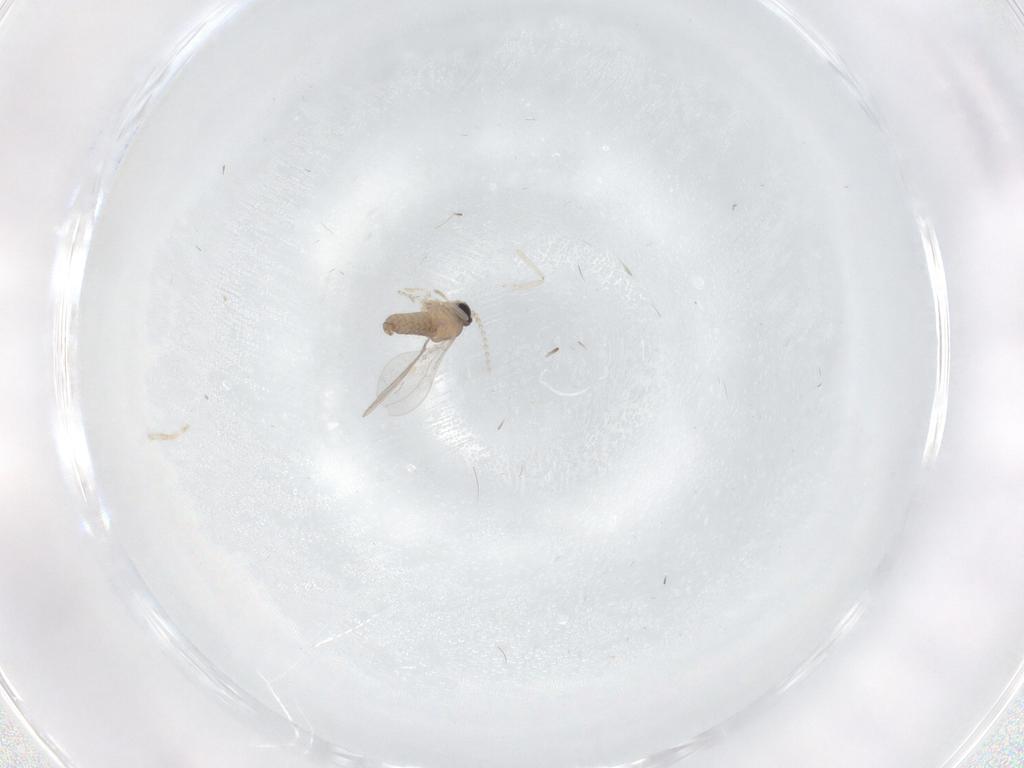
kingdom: Animalia
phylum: Arthropoda
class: Insecta
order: Diptera
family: Cecidomyiidae
